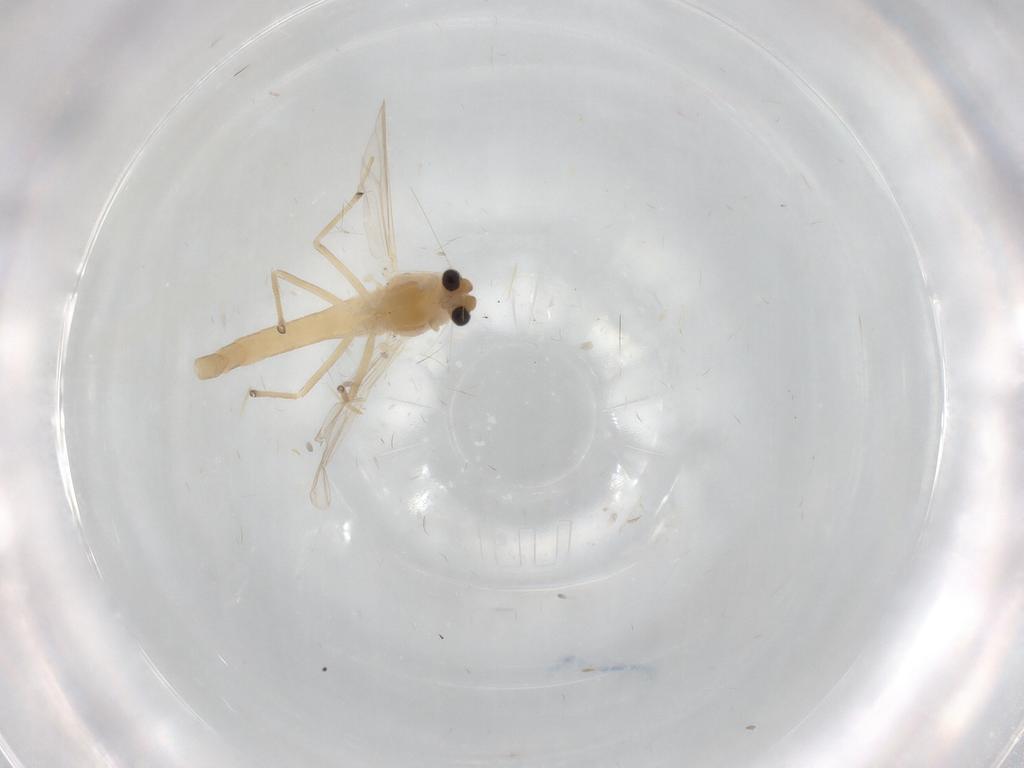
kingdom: Animalia
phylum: Arthropoda
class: Insecta
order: Diptera
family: Chironomidae
